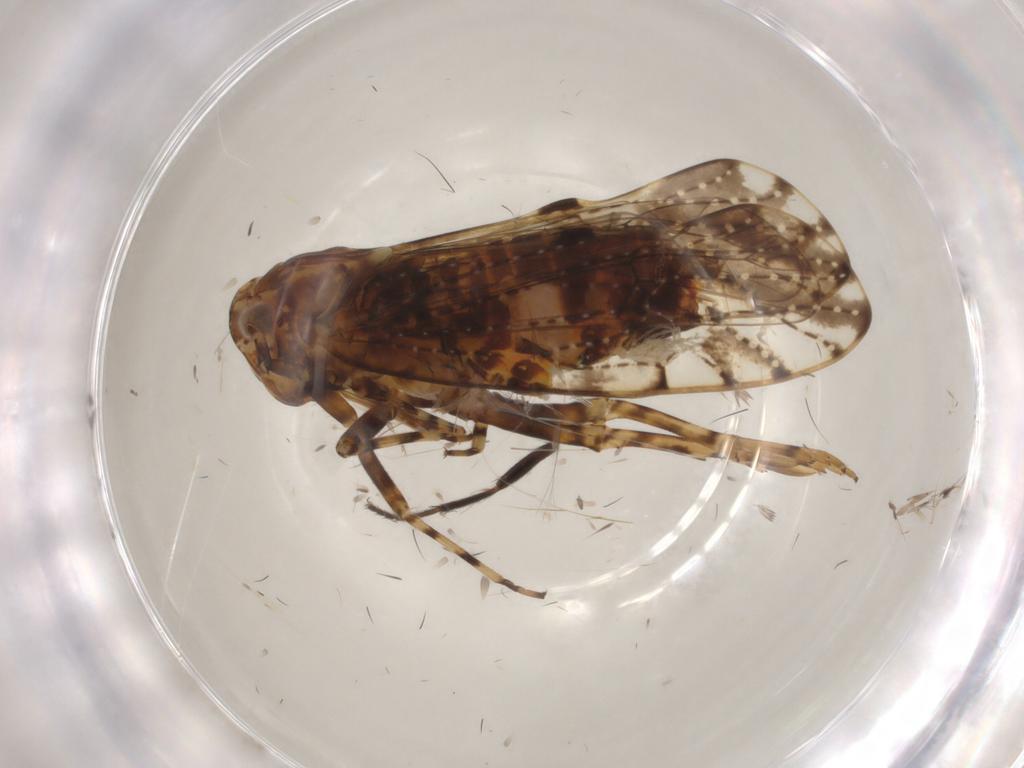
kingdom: Animalia
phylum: Arthropoda
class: Insecta
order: Hemiptera
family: Delphacidae
